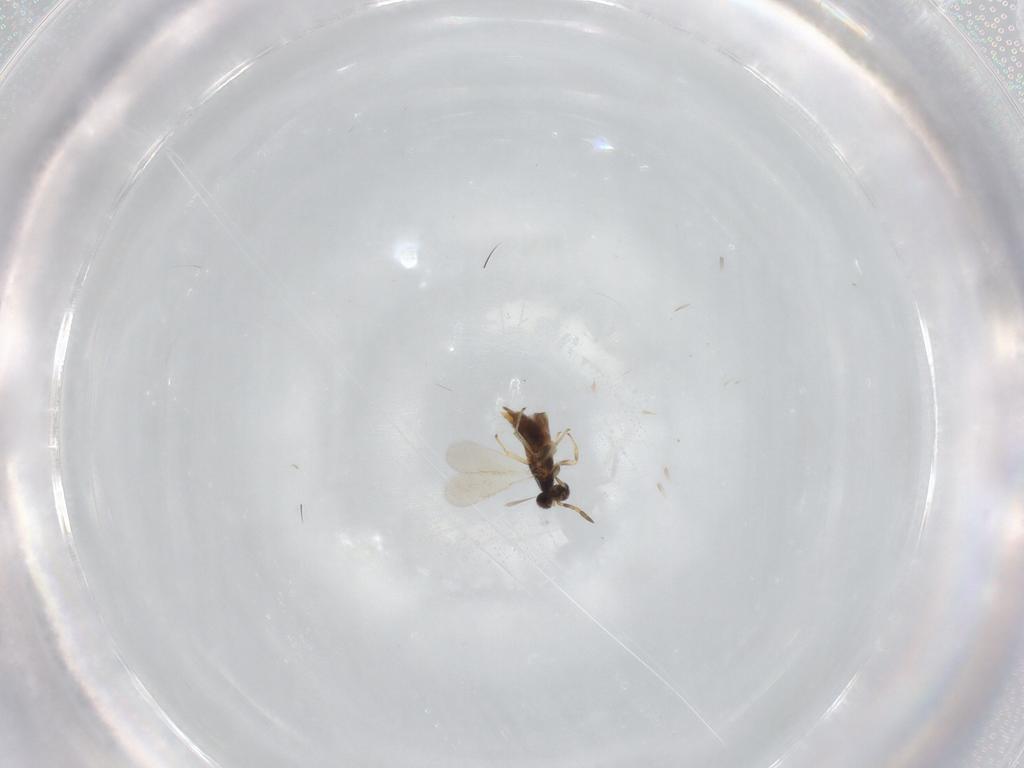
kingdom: Animalia
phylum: Arthropoda
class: Insecta
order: Hymenoptera
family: Aphelinidae
